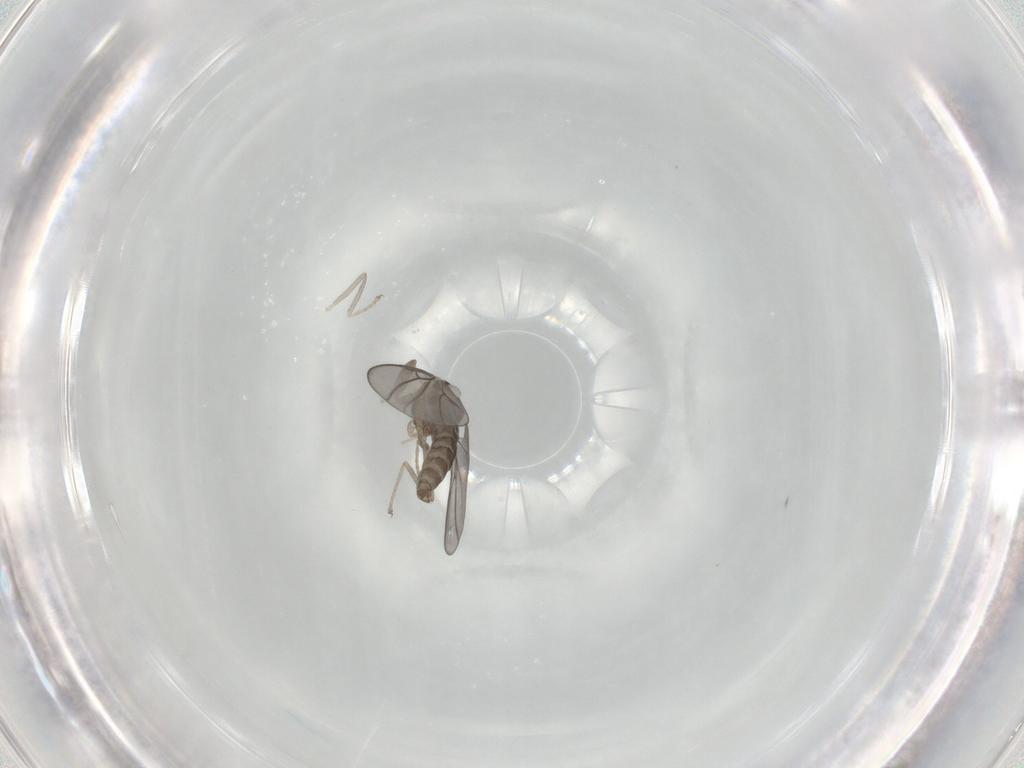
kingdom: Animalia
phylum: Arthropoda
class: Insecta
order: Diptera
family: Cecidomyiidae
